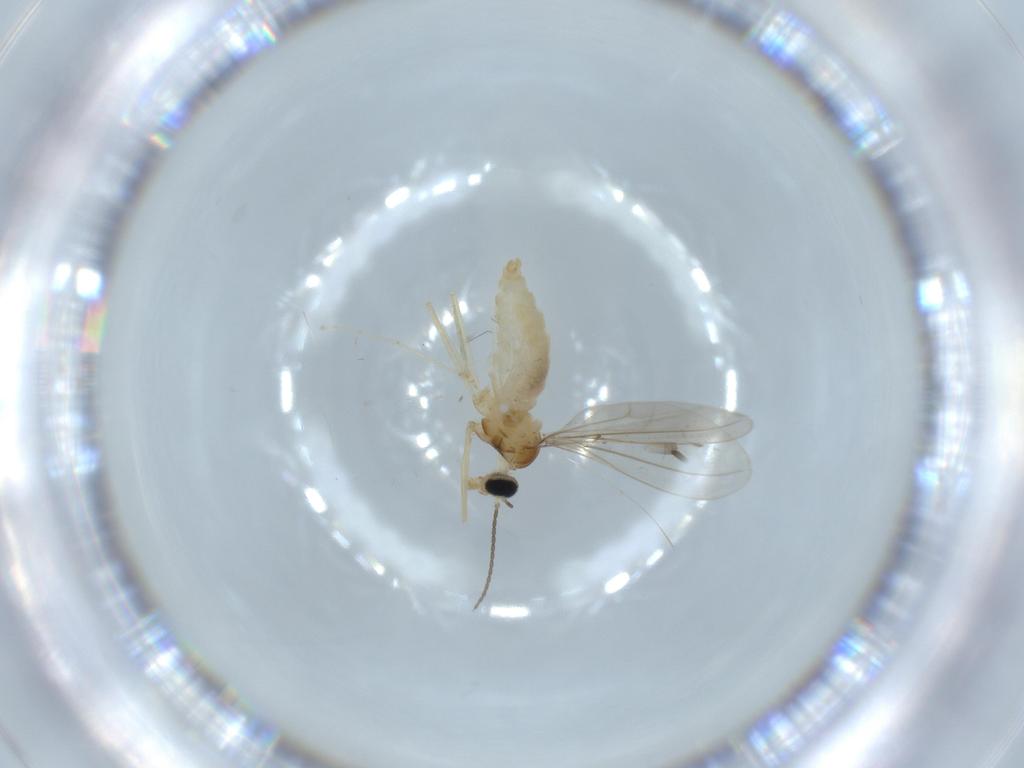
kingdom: Animalia
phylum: Arthropoda
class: Insecta
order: Diptera
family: Cecidomyiidae
